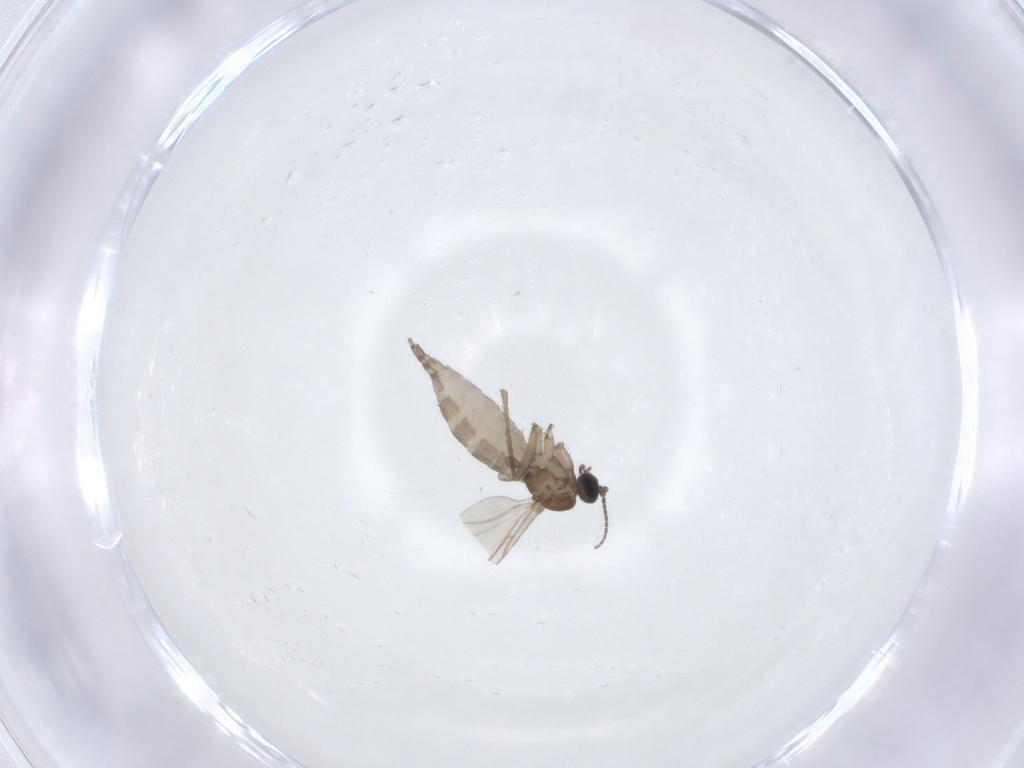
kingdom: Animalia
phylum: Arthropoda
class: Insecta
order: Diptera
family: Sciaridae
